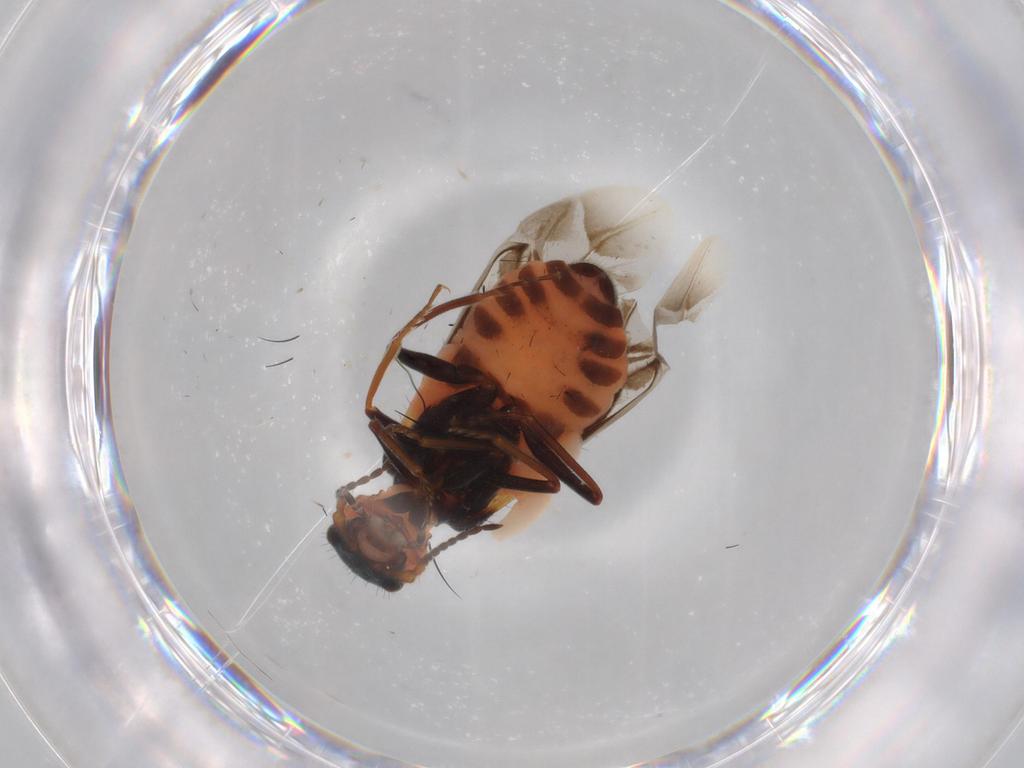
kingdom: Animalia
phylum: Arthropoda
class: Insecta
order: Coleoptera
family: Melyridae
